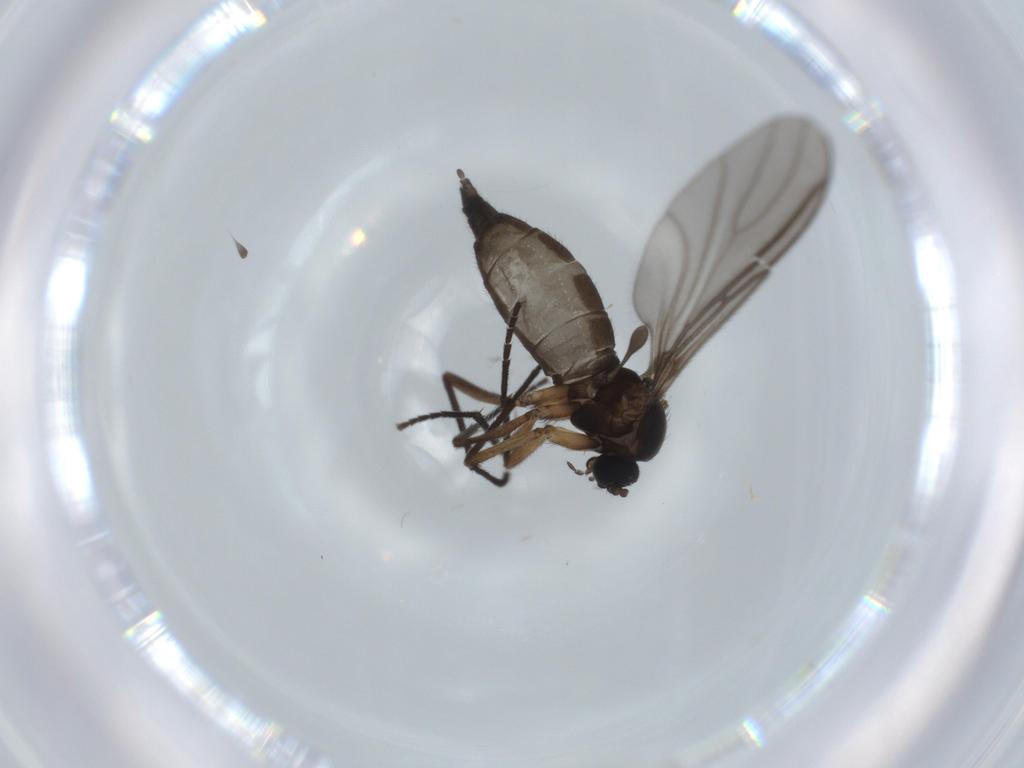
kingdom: Animalia
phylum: Arthropoda
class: Insecta
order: Diptera
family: Sciaridae
